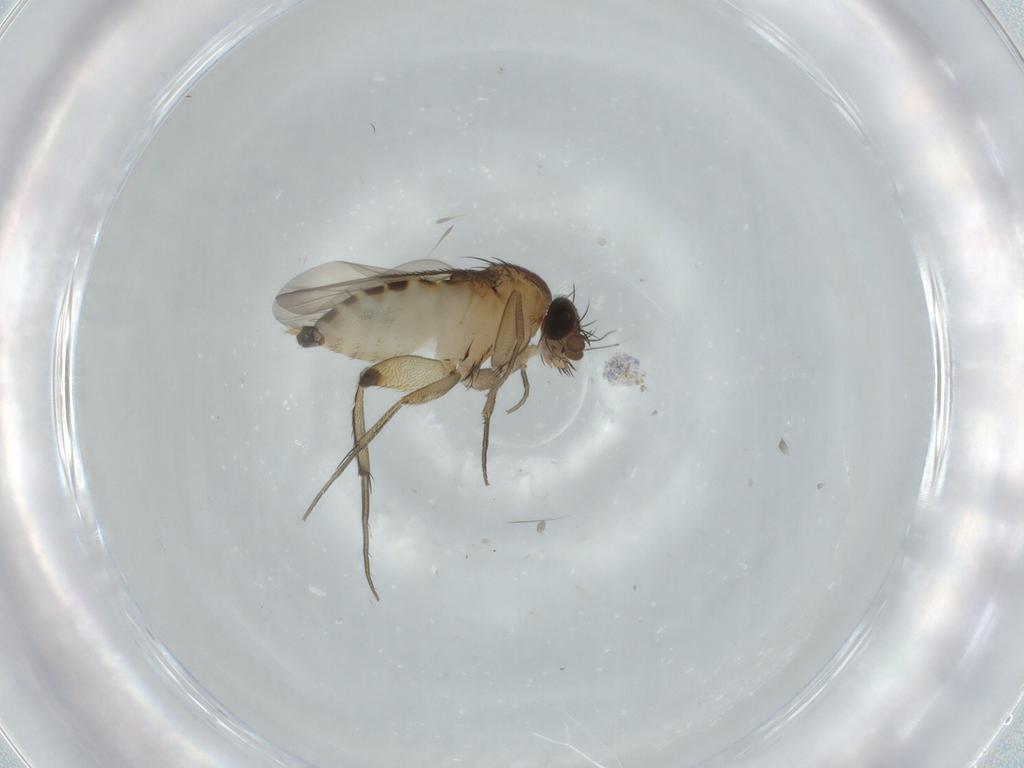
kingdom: Animalia
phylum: Arthropoda
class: Insecta
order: Diptera
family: Phoridae
